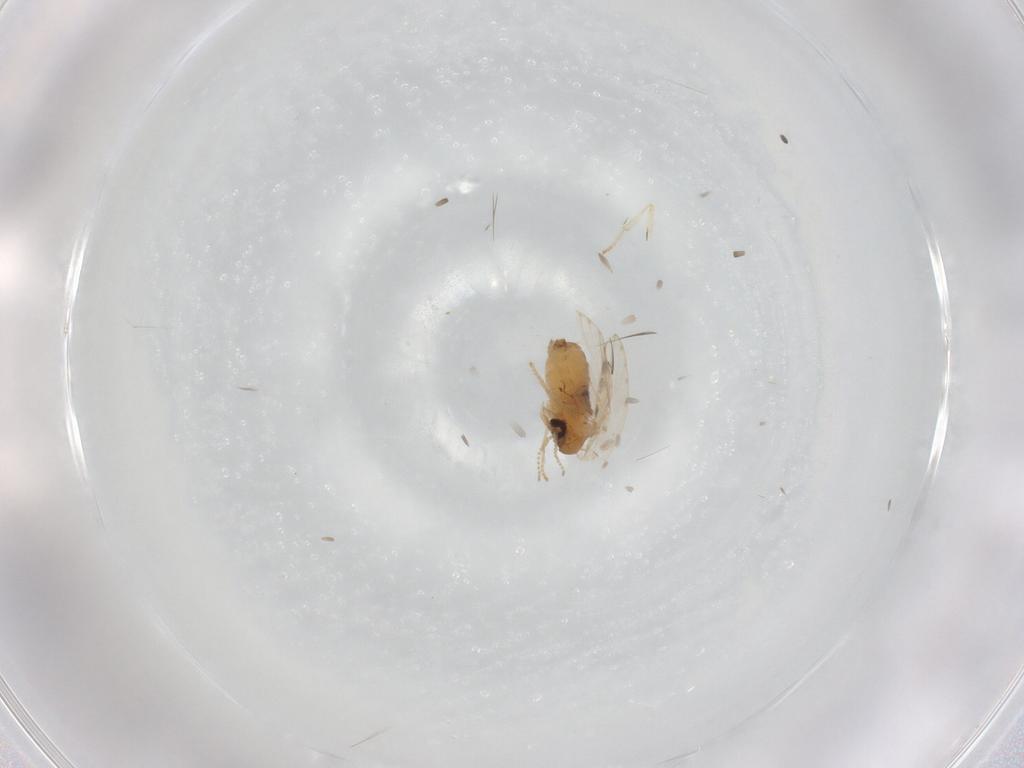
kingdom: Animalia
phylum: Arthropoda
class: Insecta
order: Diptera
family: Psychodidae
